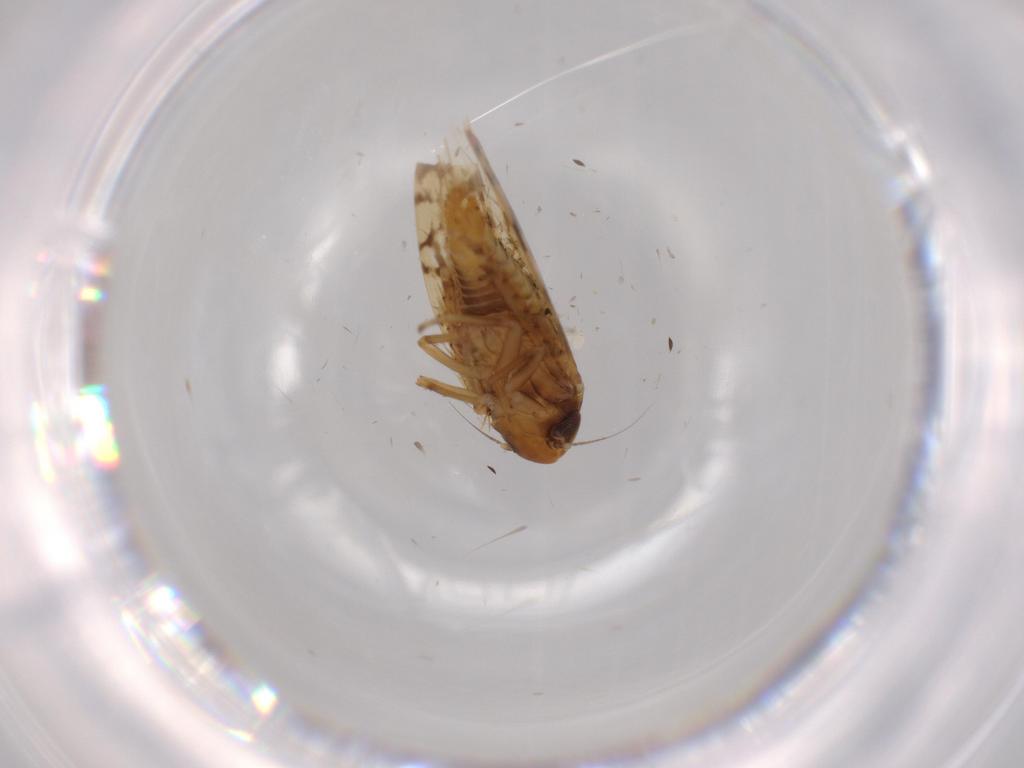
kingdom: Animalia
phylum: Arthropoda
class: Insecta
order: Hemiptera
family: Cicadellidae
